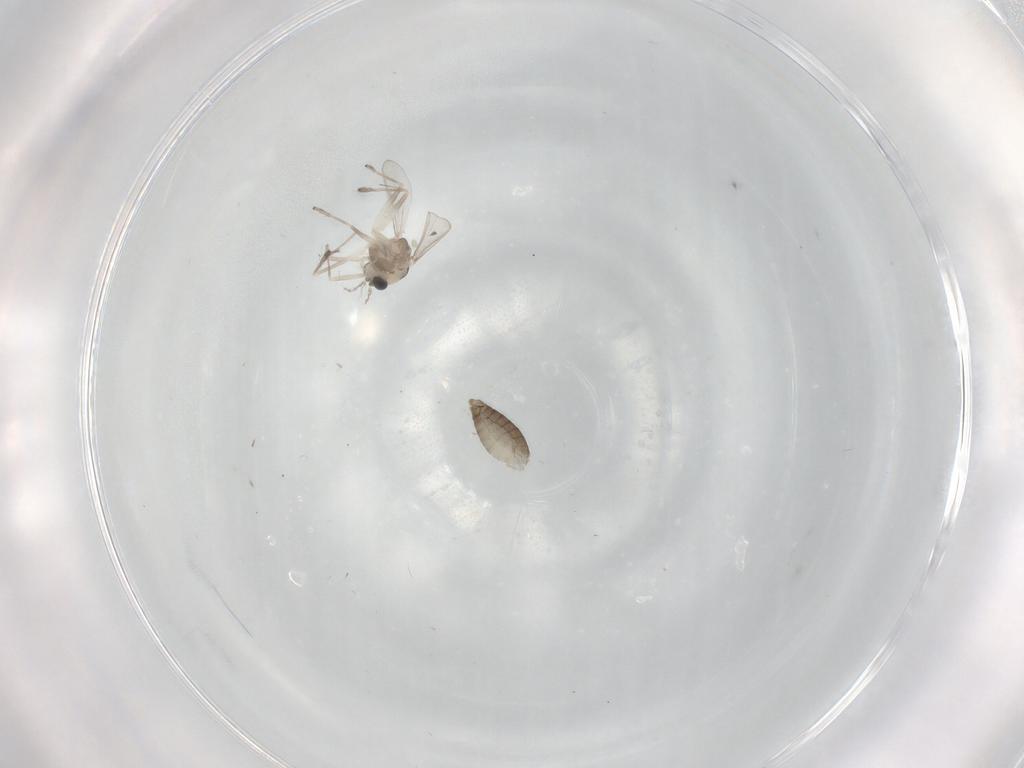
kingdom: Animalia
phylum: Arthropoda
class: Insecta
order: Diptera
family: Chironomidae
